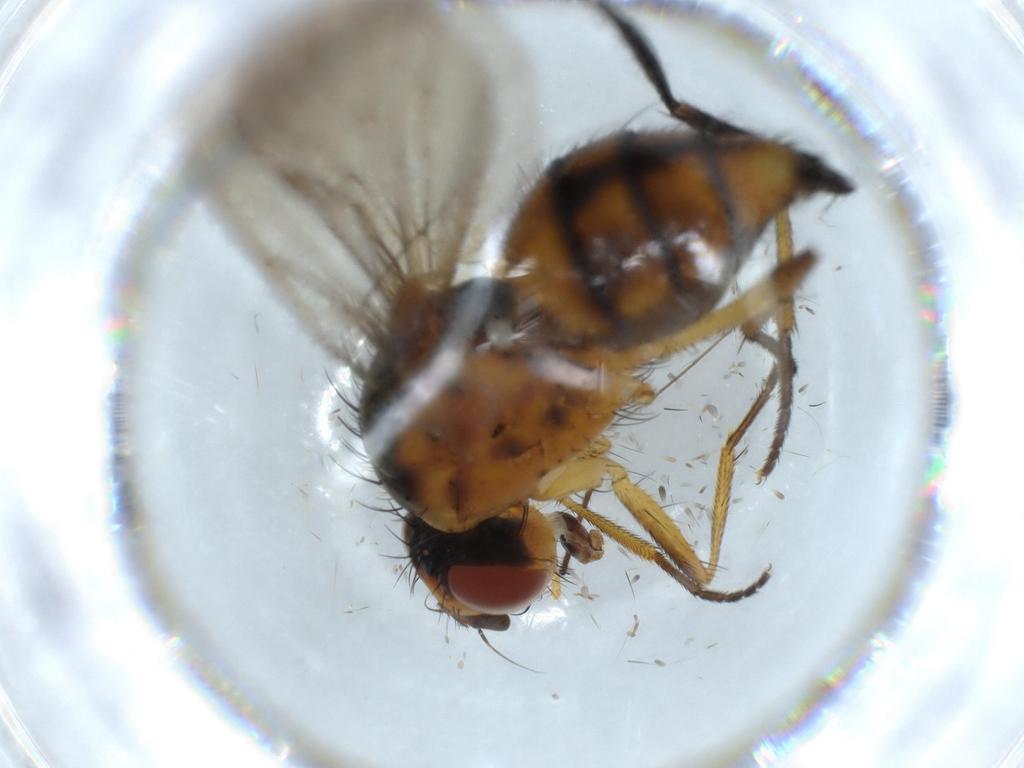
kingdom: Animalia
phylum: Arthropoda
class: Insecta
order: Diptera
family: Anthomyiidae
